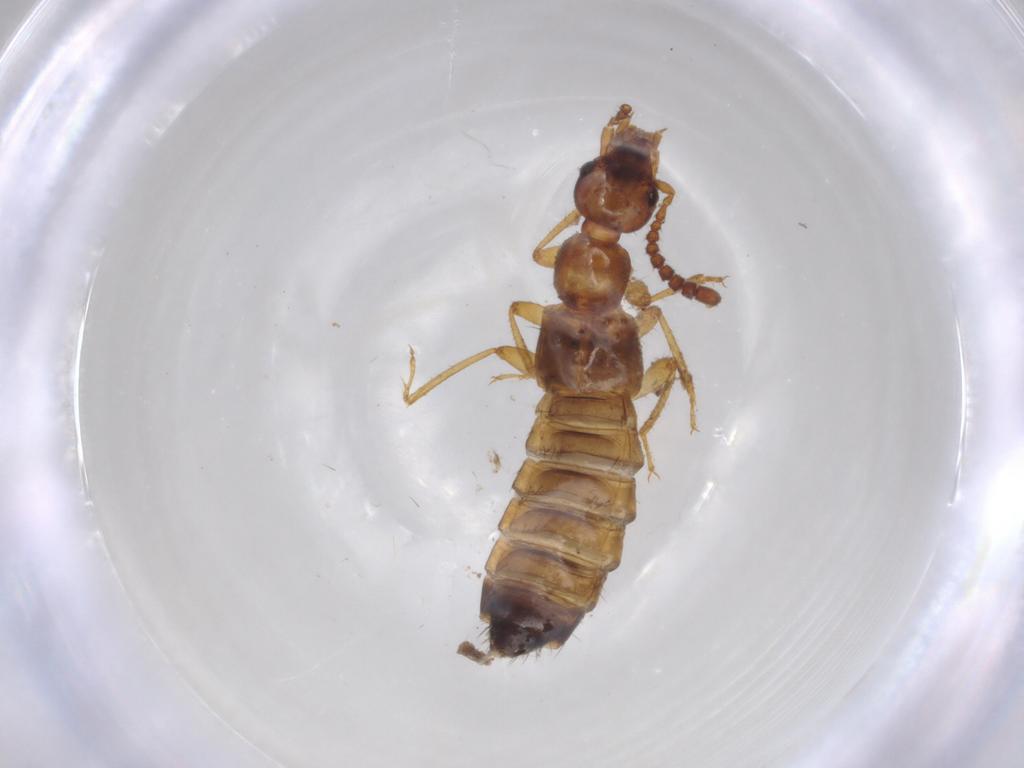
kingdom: Animalia
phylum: Arthropoda
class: Insecta
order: Coleoptera
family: Staphylinidae
